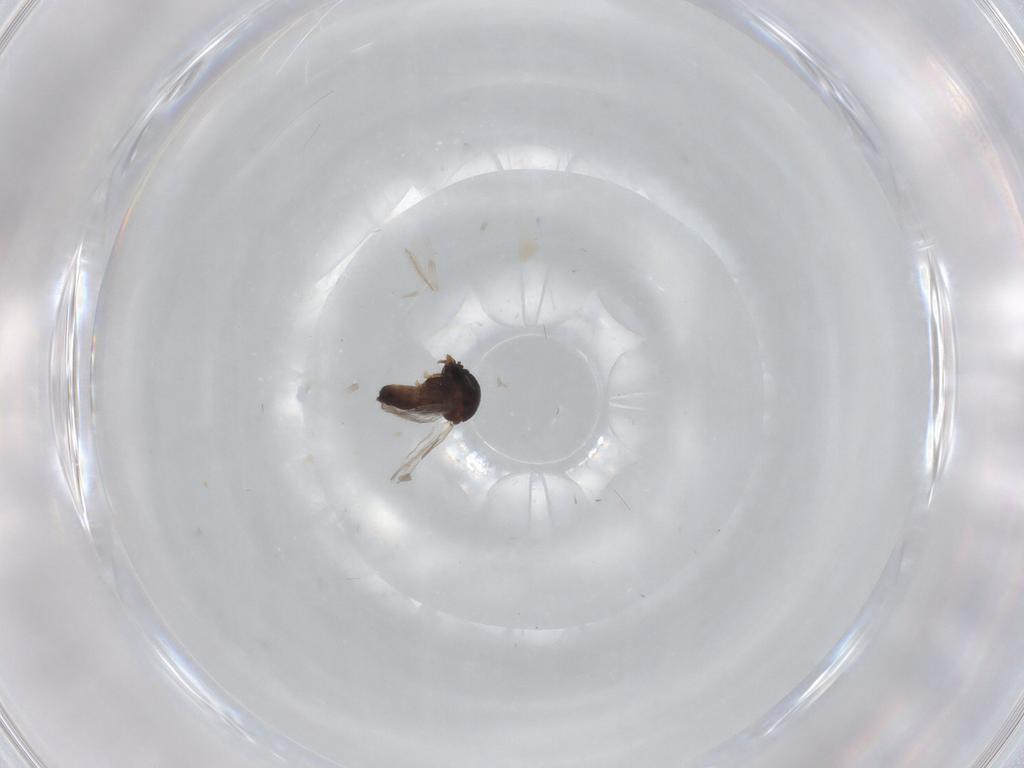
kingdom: Animalia
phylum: Arthropoda
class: Insecta
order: Diptera
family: Ceratopogonidae
